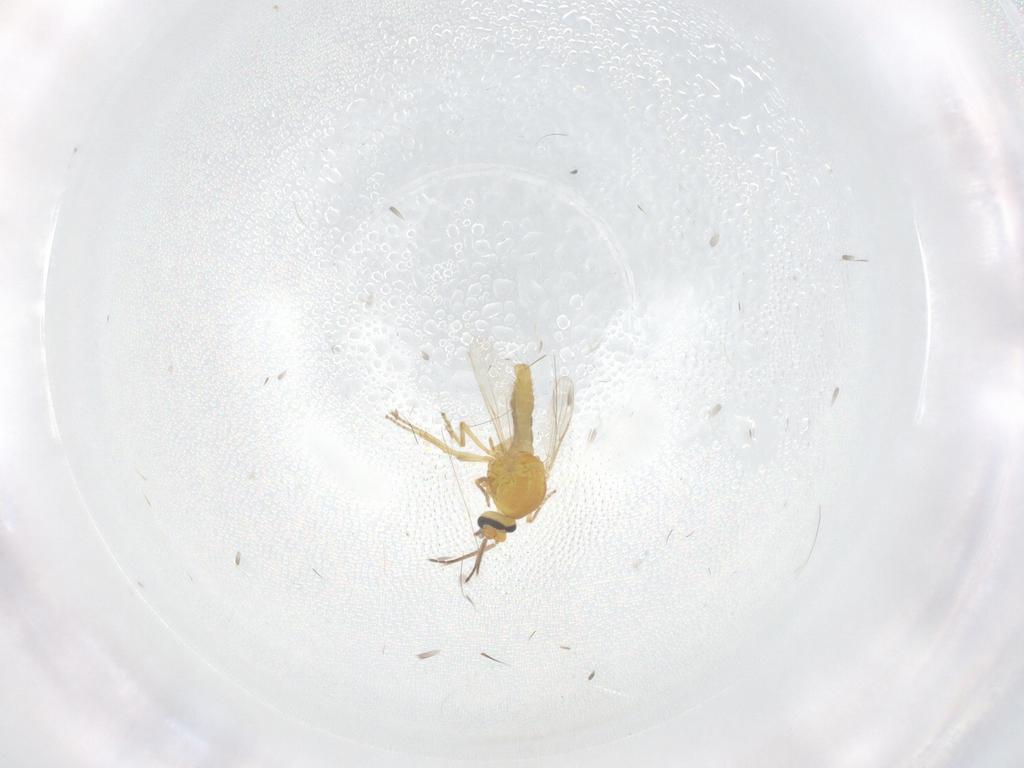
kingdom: Animalia
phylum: Arthropoda
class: Insecta
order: Diptera
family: Ceratopogonidae
